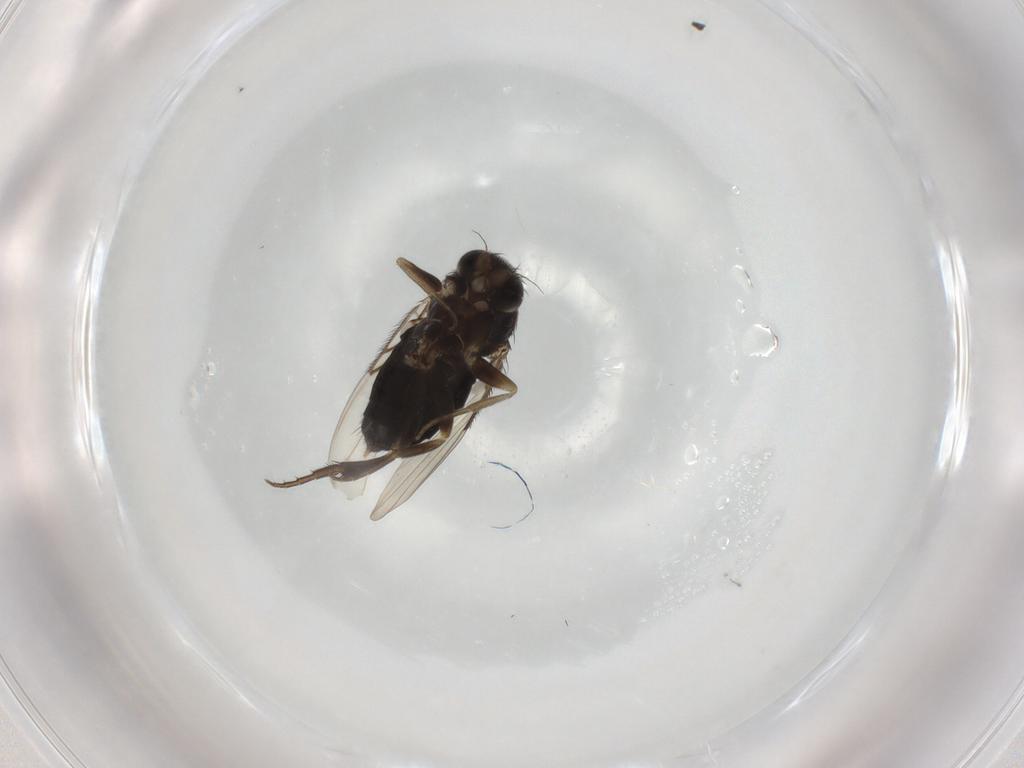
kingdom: Animalia
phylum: Arthropoda
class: Insecta
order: Diptera
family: Phoridae
